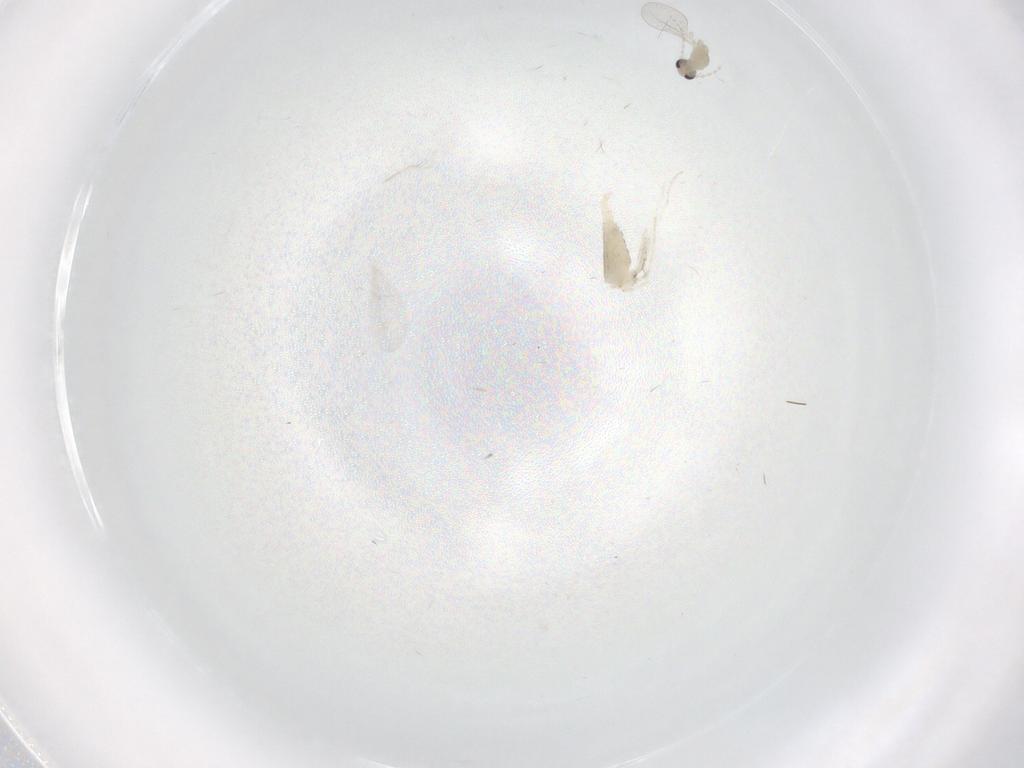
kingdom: Animalia
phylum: Arthropoda
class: Insecta
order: Diptera
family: Cecidomyiidae
